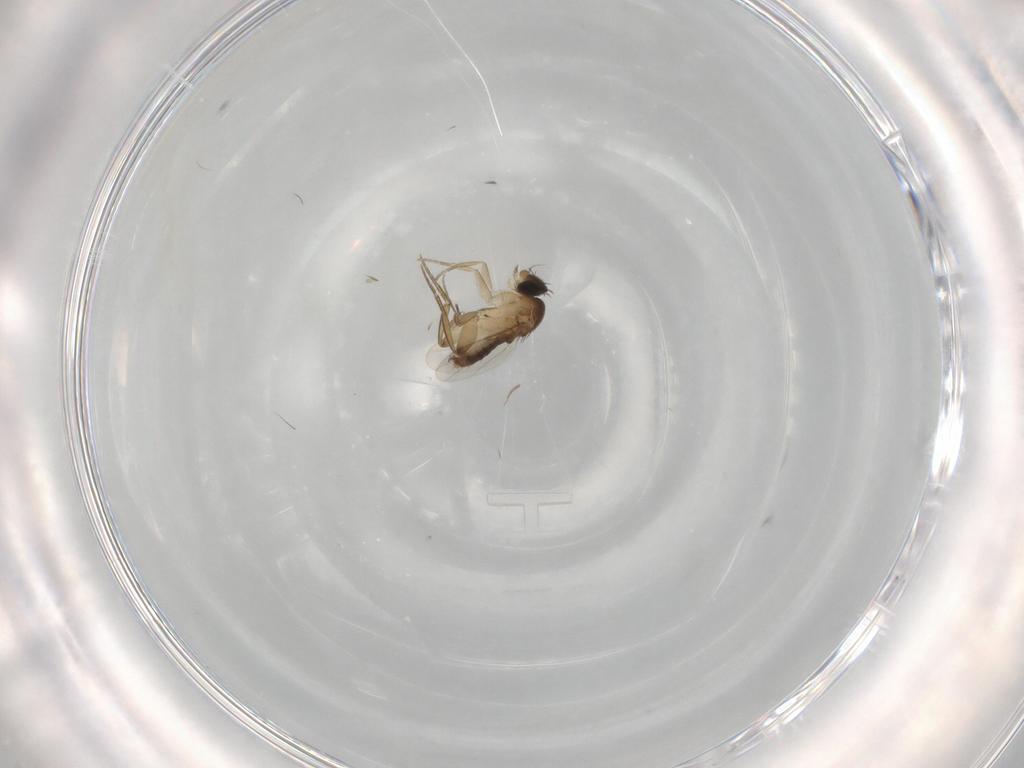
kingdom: Animalia
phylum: Arthropoda
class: Insecta
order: Diptera
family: Phoridae
